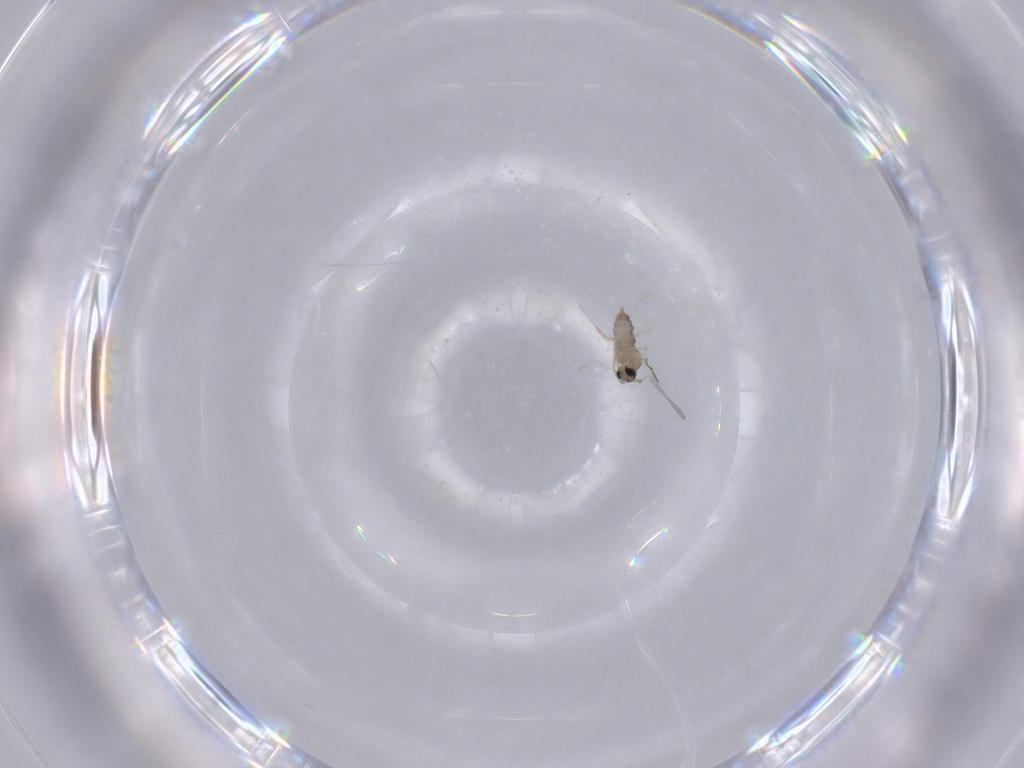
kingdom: Animalia
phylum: Arthropoda
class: Insecta
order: Diptera
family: Cecidomyiidae
